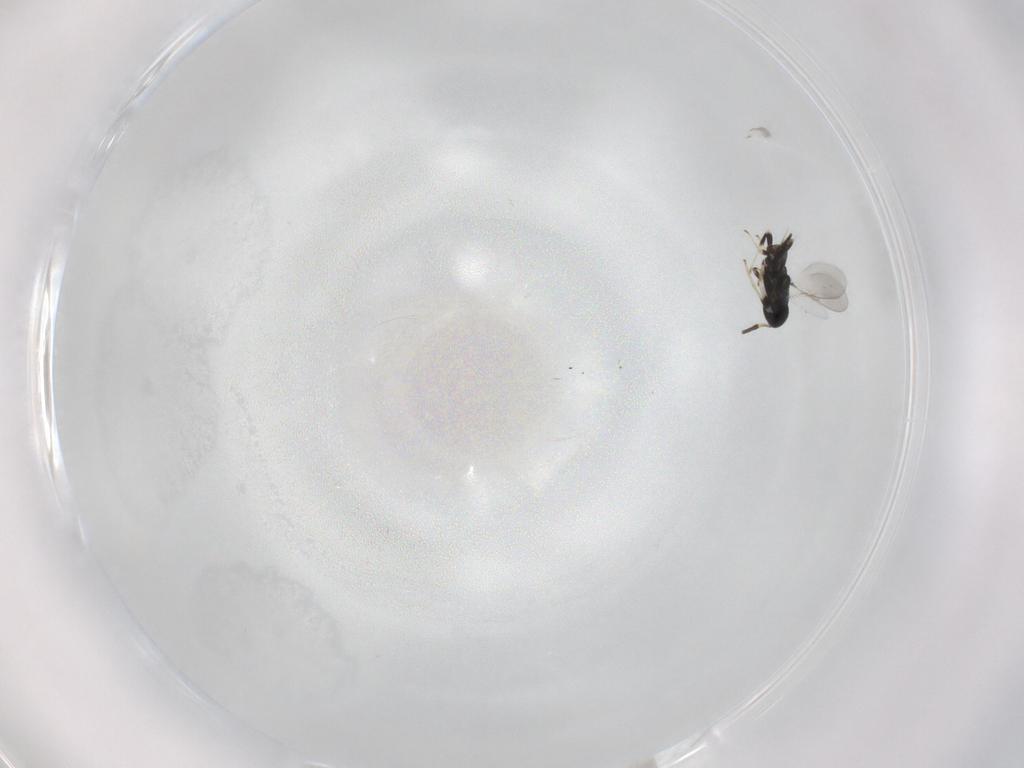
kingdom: Animalia
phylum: Arthropoda
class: Insecta
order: Hymenoptera
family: Encyrtidae
